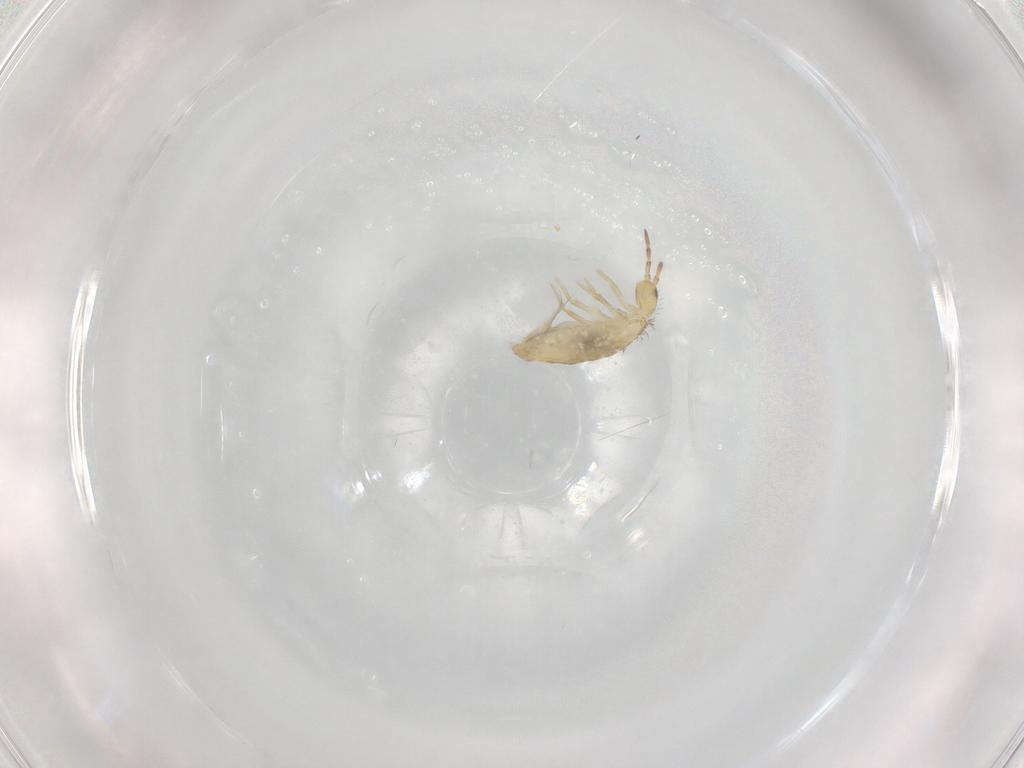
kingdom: Animalia
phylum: Arthropoda
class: Collembola
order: Entomobryomorpha
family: Entomobryidae
